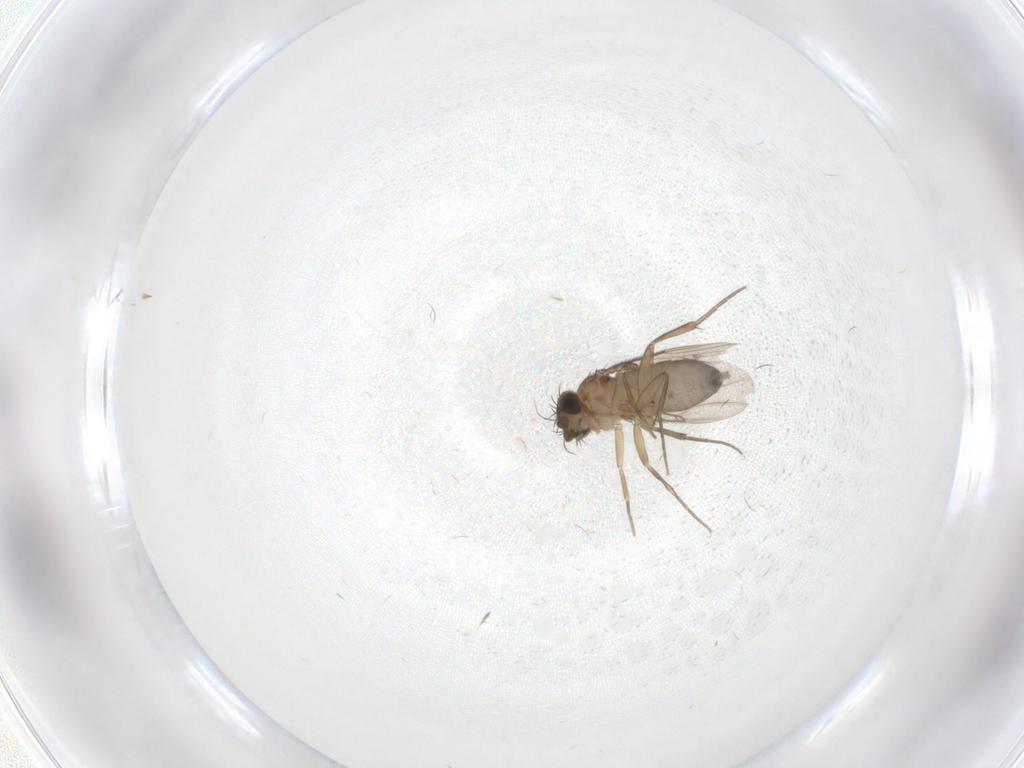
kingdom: Animalia
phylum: Arthropoda
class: Insecta
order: Diptera
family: Phoridae
